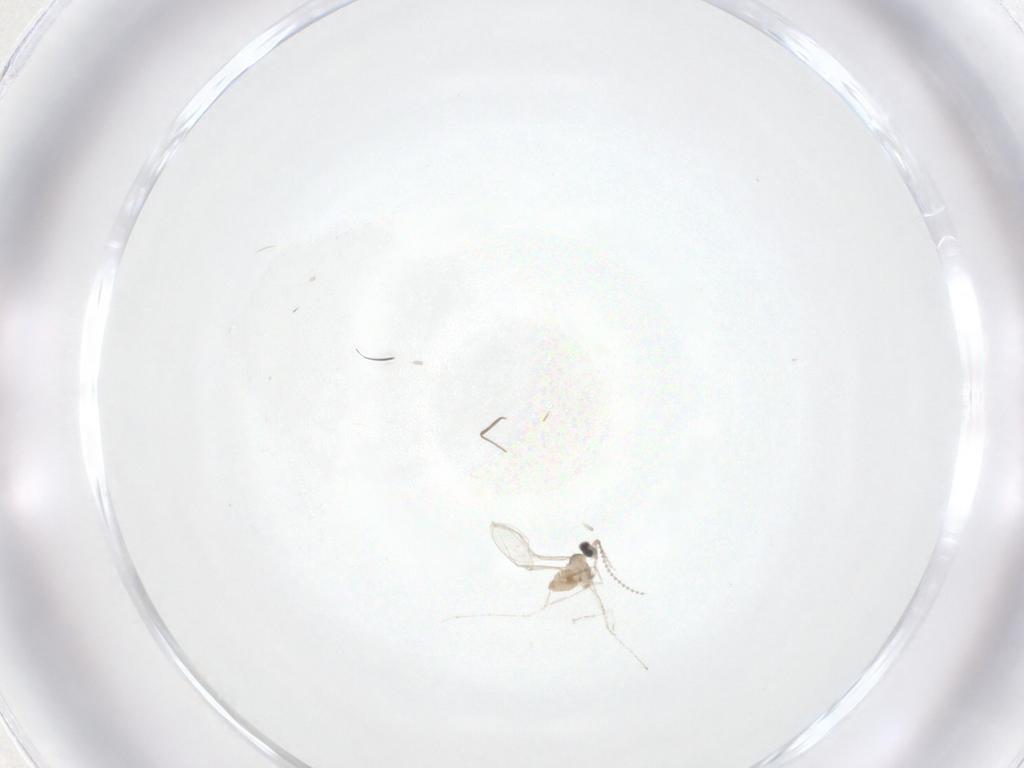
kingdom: Animalia
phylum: Arthropoda
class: Insecta
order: Diptera
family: Cecidomyiidae
